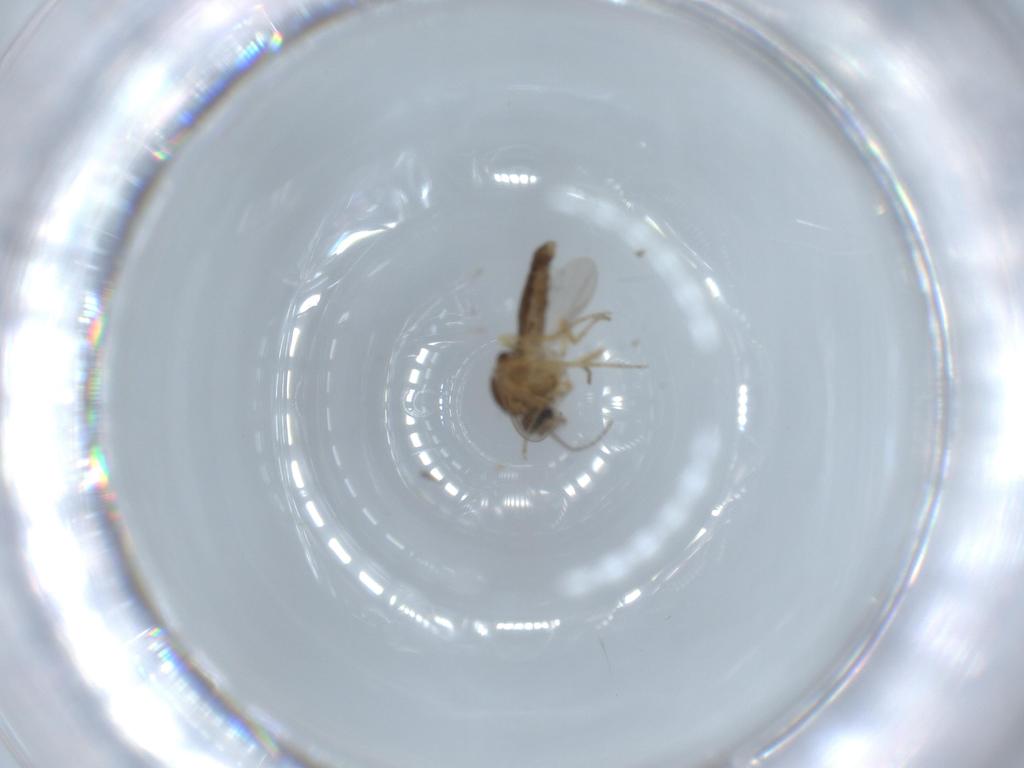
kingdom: Animalia
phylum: Arthropoda
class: Insecta
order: Diptera
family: Ceratopogonidae
